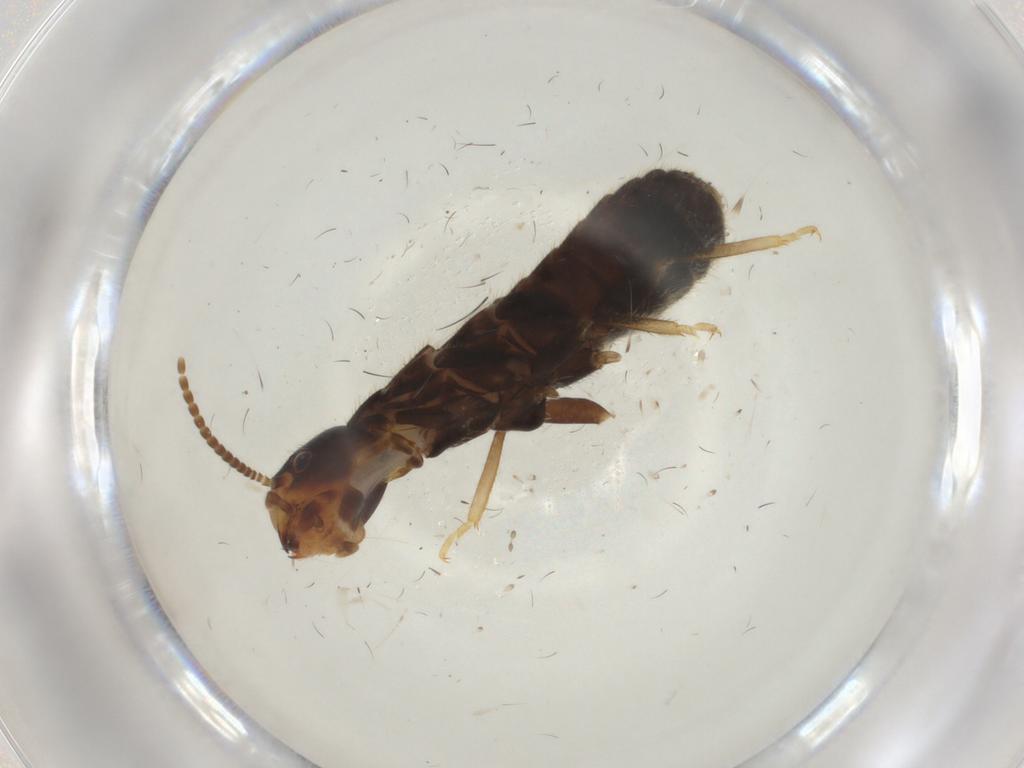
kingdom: Animalia
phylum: Arthropoda
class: Insecta
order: Blattodea
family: Rhinotermitidae
